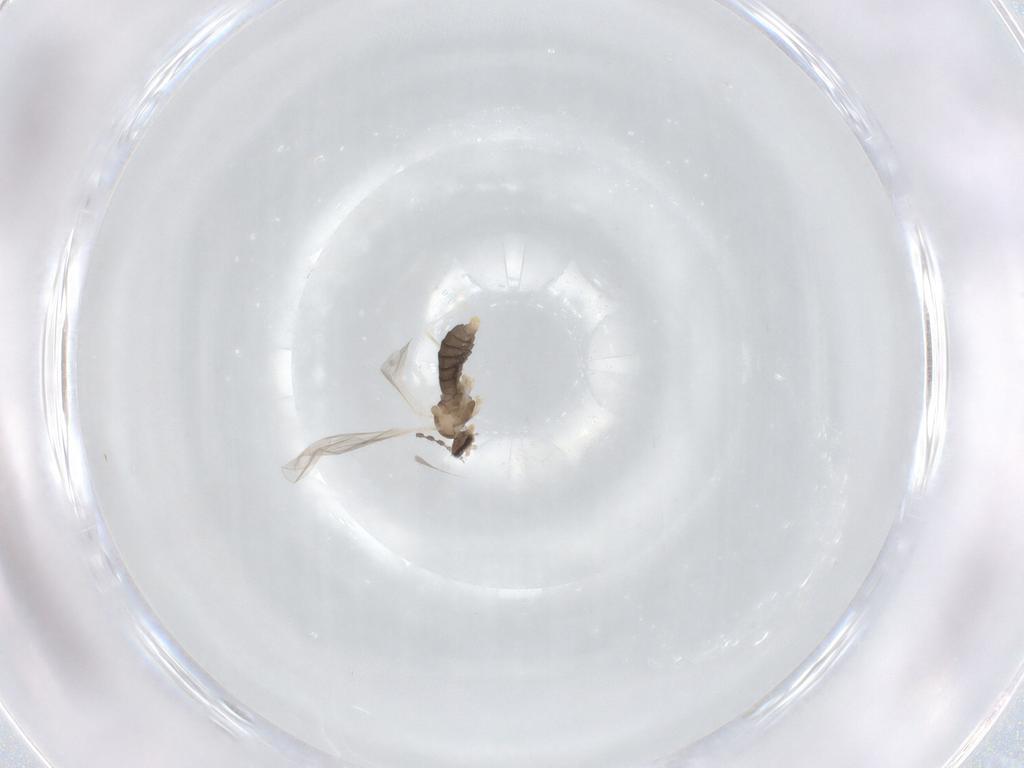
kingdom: Animalia
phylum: Arthropoda
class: Insecta
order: Diptera
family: Cecidomyiidae
